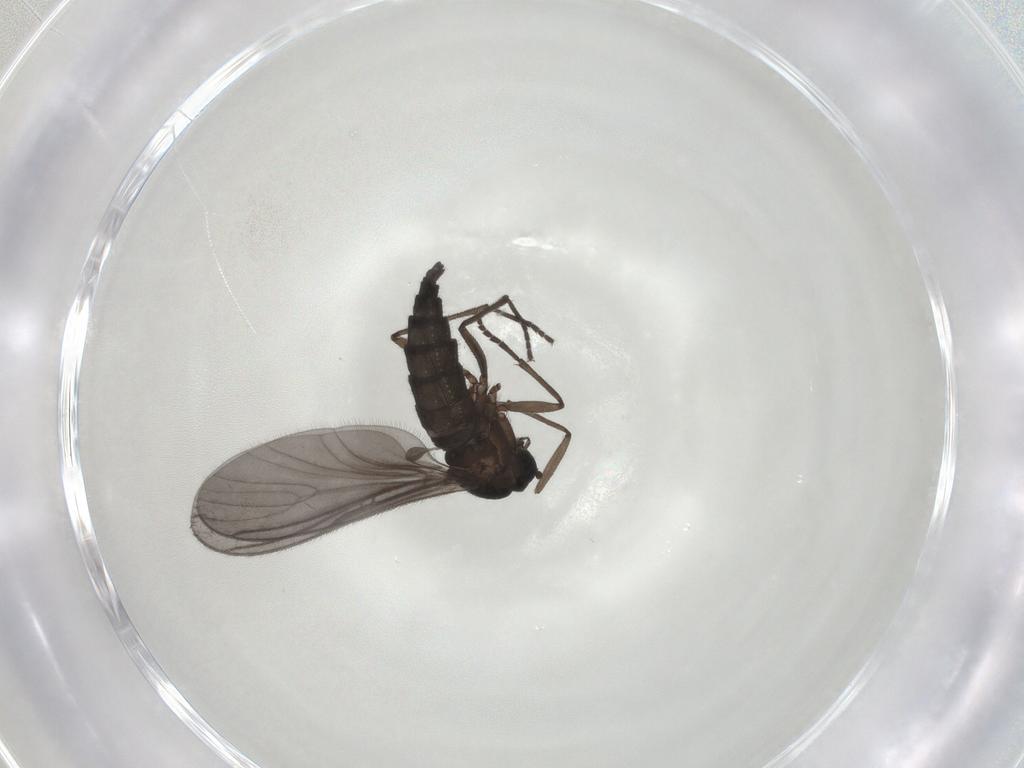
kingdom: Animalia
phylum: Arthropoda
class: Insecta
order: Diptera
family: Sciaridae
